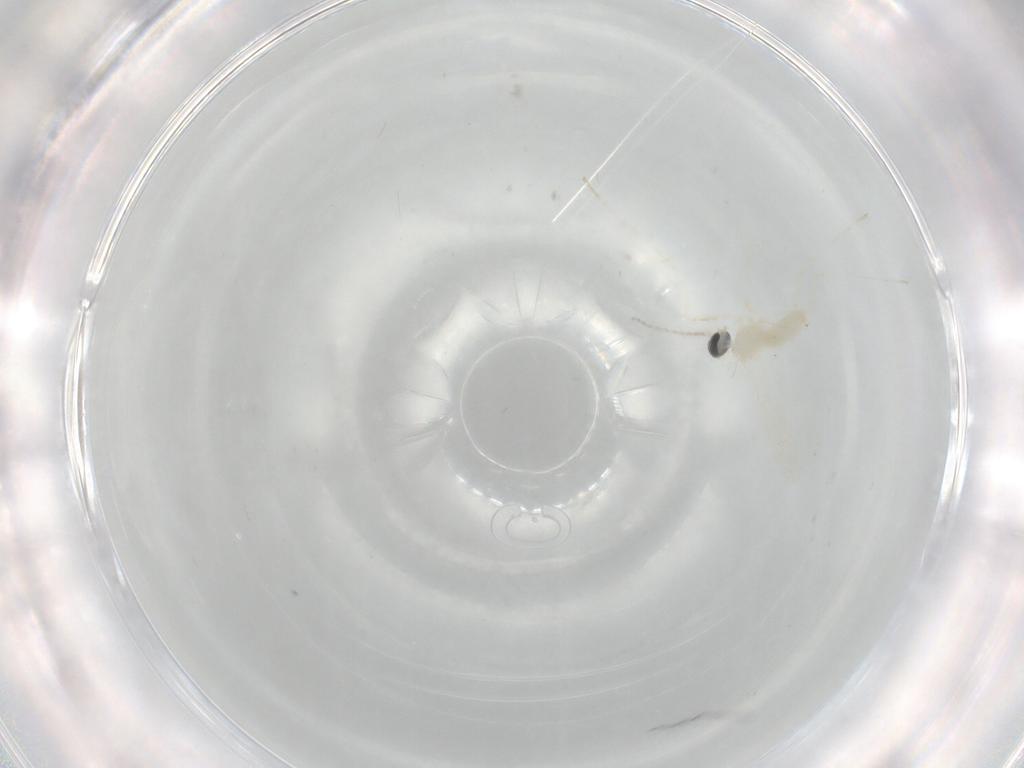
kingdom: Animalia
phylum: Arthropoda
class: Insecta
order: Diptera
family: Cecidomyiidae
